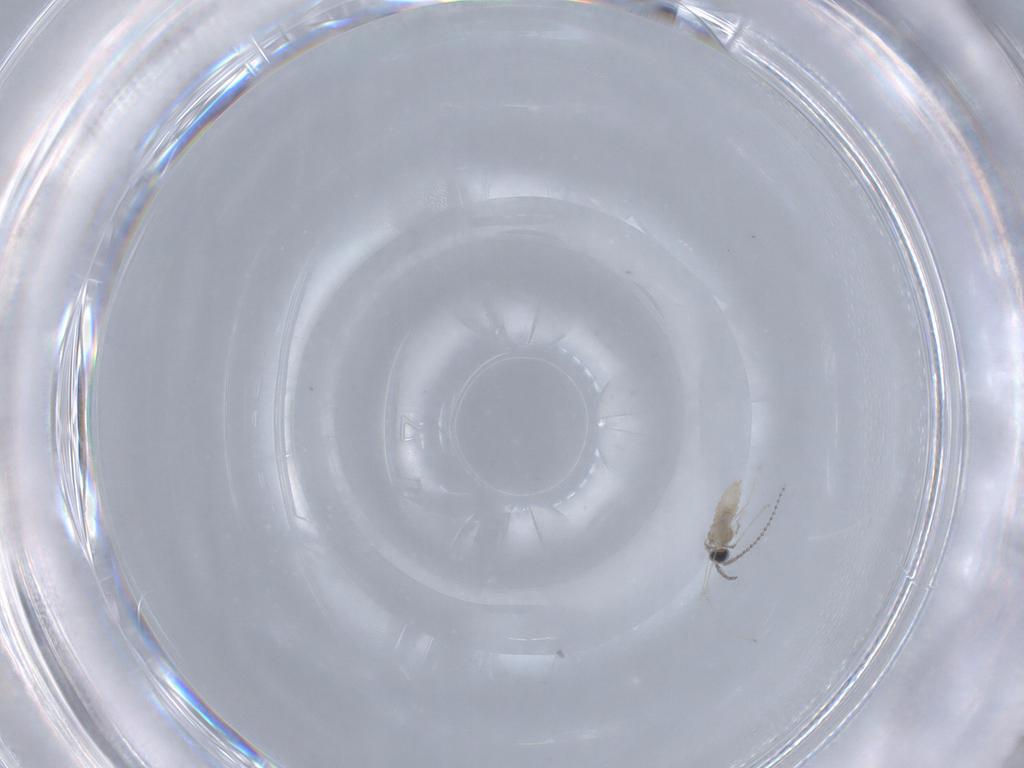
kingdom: Animalia
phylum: Arthropoda
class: Insecta
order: Diptera
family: Cecidomyiidae
